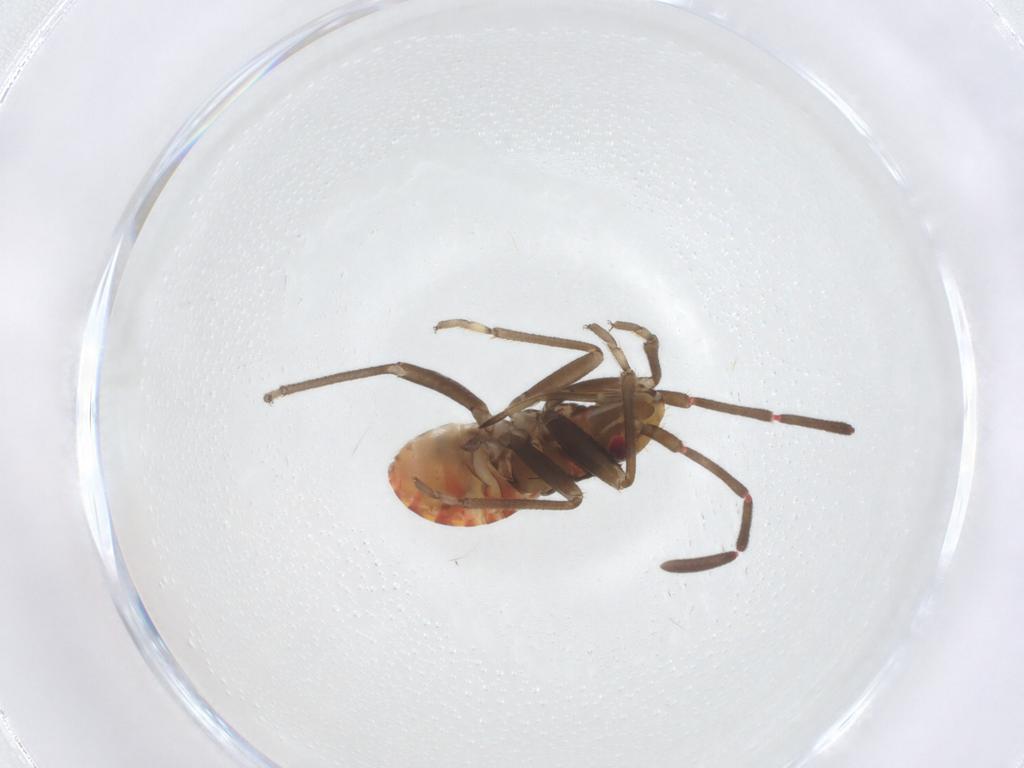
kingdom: Animalia
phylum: Arthropoda
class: Insecta
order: Hemiptera
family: Rhyparochromidae
